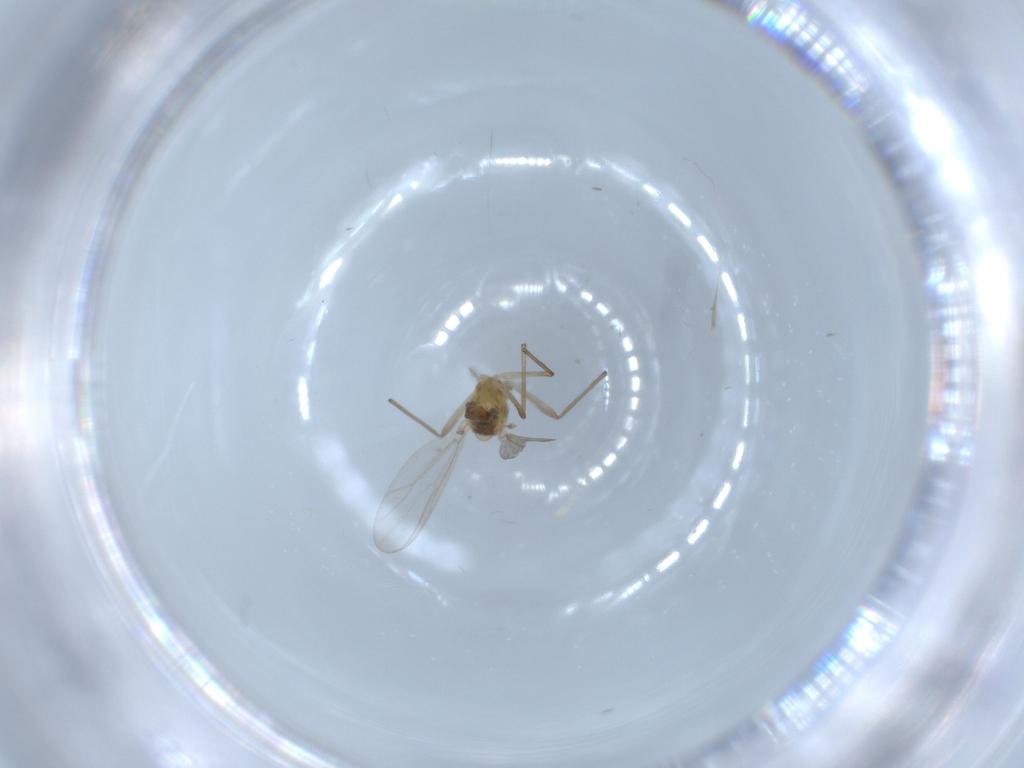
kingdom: Animalia
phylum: Arthropoda
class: Insecta
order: Diptera
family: Chironomidae
